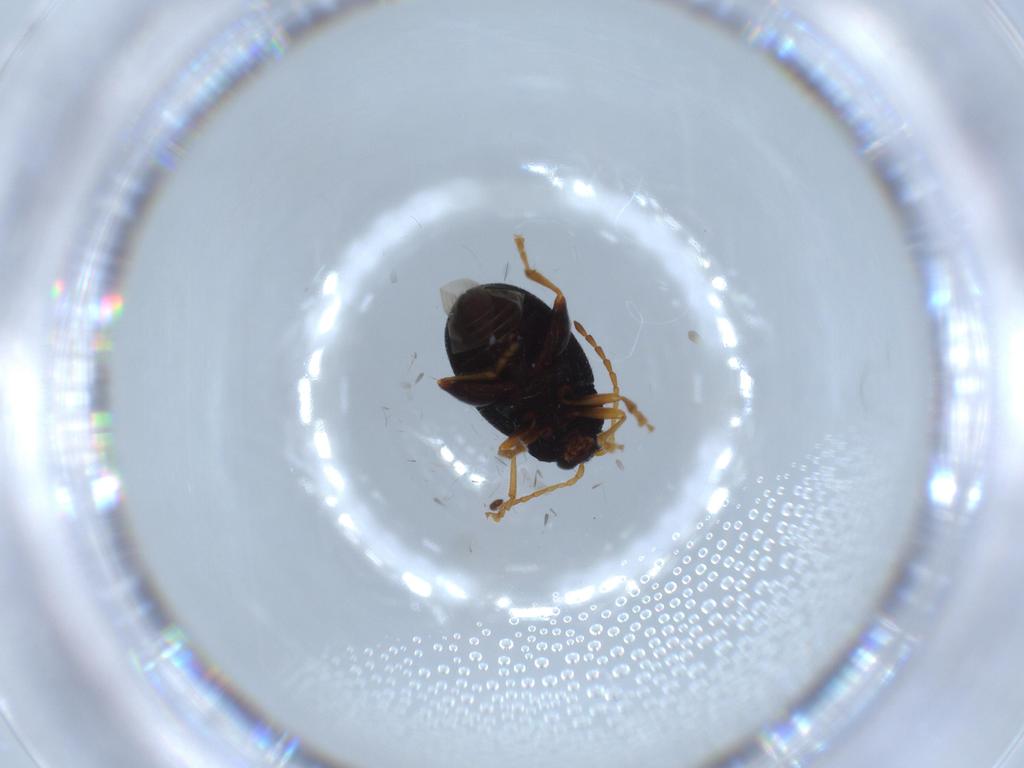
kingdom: Animalia
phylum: Arthropoda
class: Insecta
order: Coleoptera
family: Chrysomelidae
